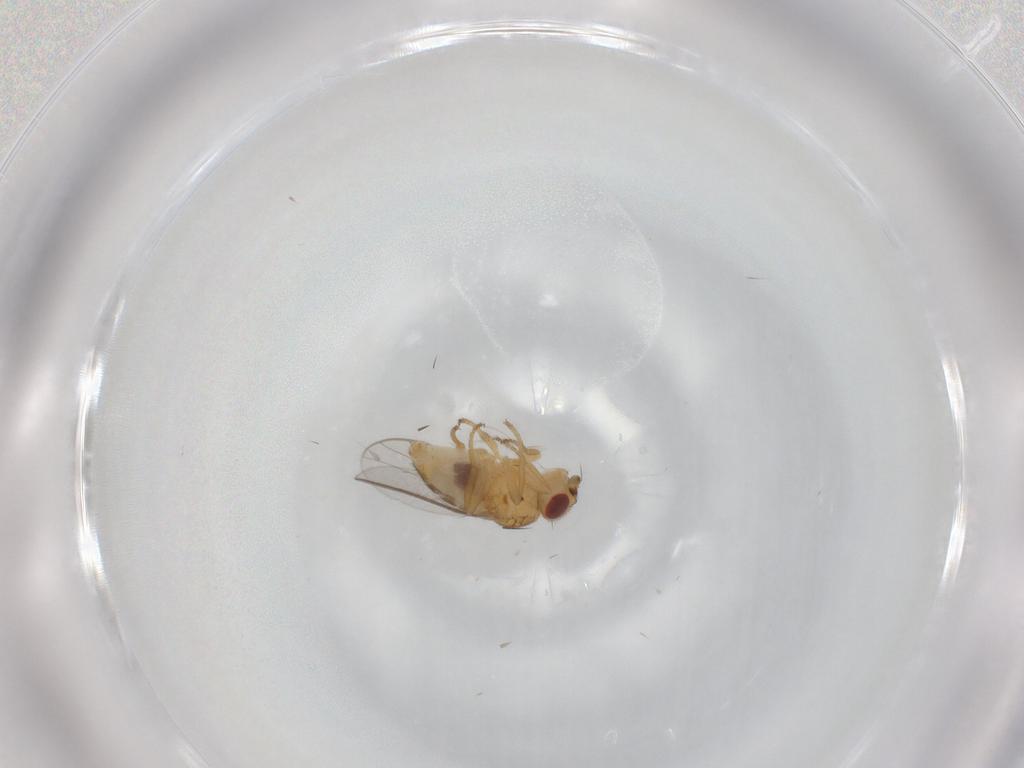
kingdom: Animalia
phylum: Arthropoda
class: Insecta
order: Diptera
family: Chloropidae
